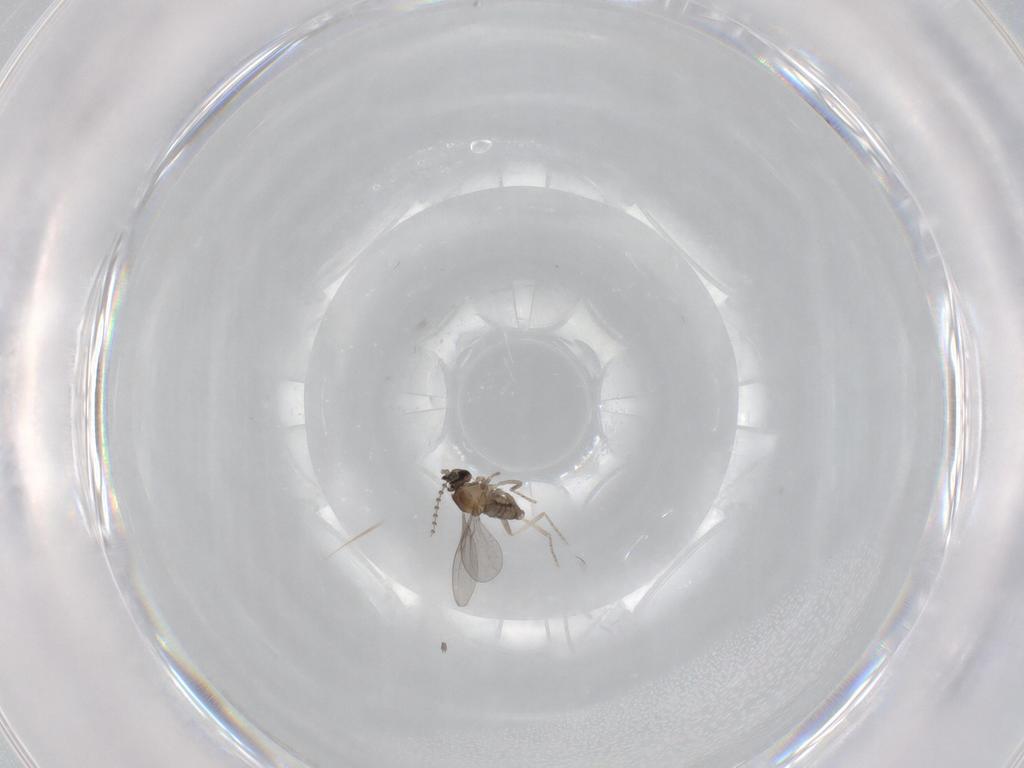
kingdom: Animalia
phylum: Arthropoda
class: Insecta
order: Diptera
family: Cecidomyiidae
